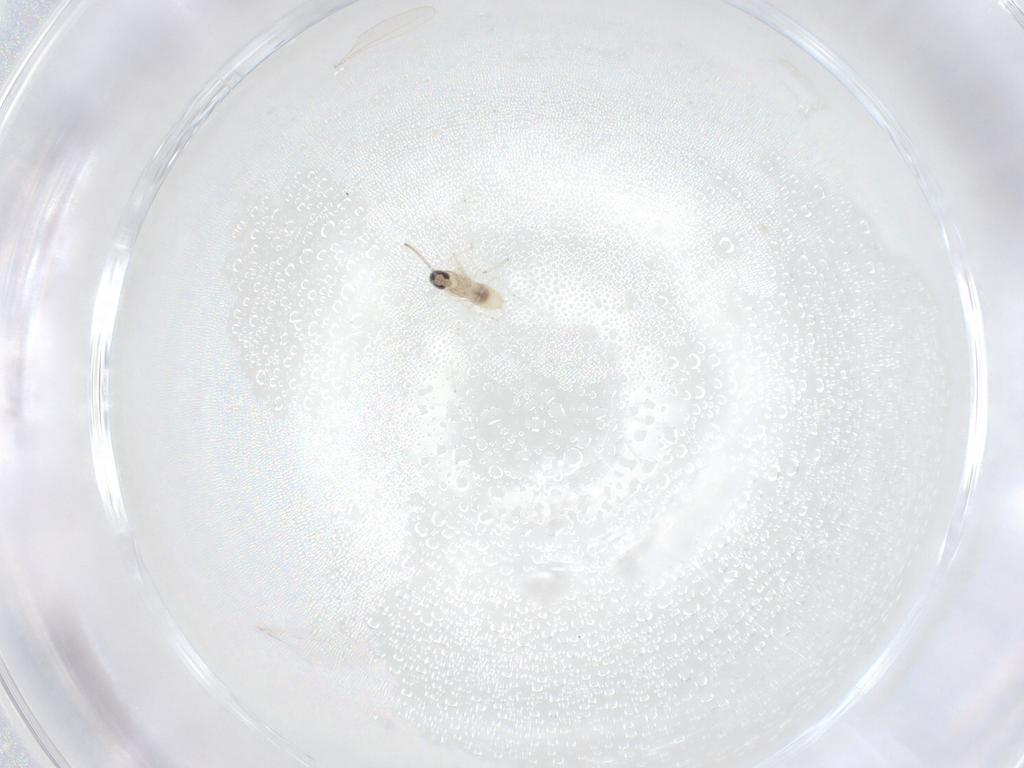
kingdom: Animalia
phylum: Arthropoda
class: Insecta
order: Diptera
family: Cecidomyiidae
